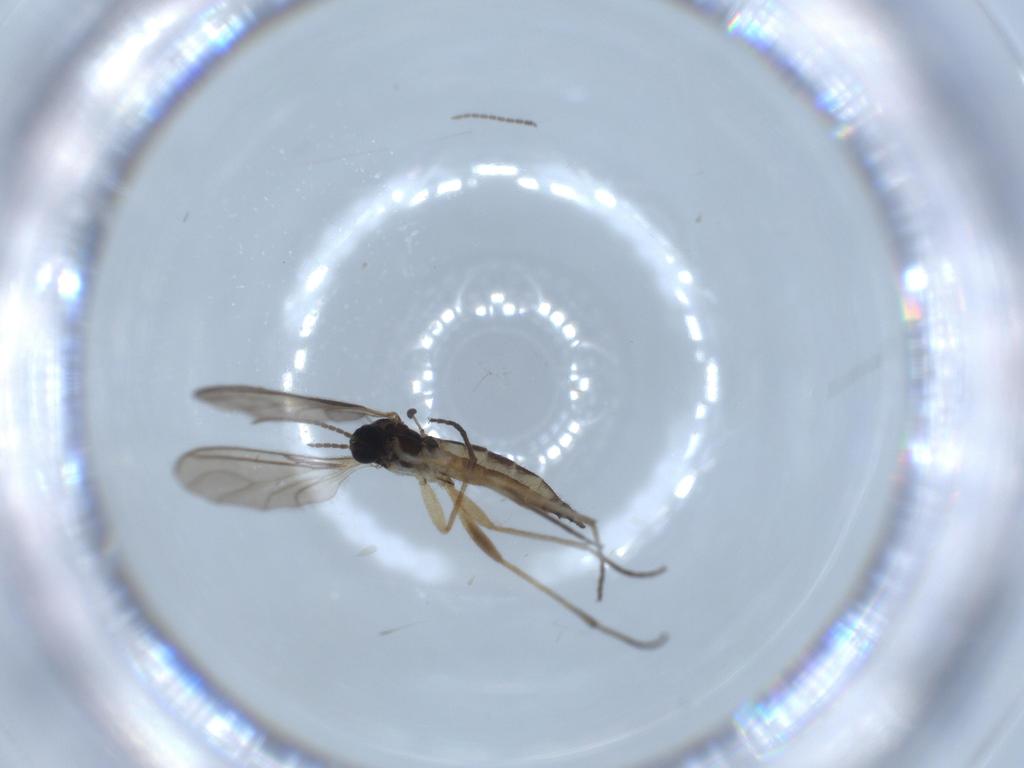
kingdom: Animalia
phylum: Arthropoda
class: Insecta
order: Diptera
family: Sciaridae
